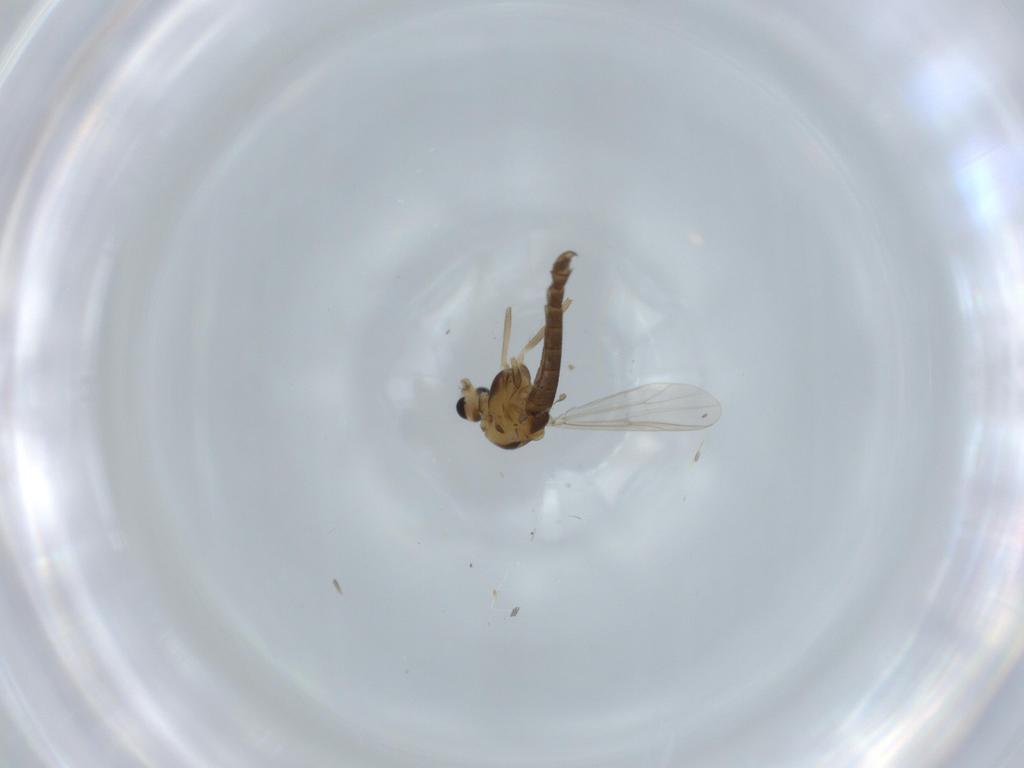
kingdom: Animalia
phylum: Arthropoda
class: Insecta
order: Diptera
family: Chironomidae
